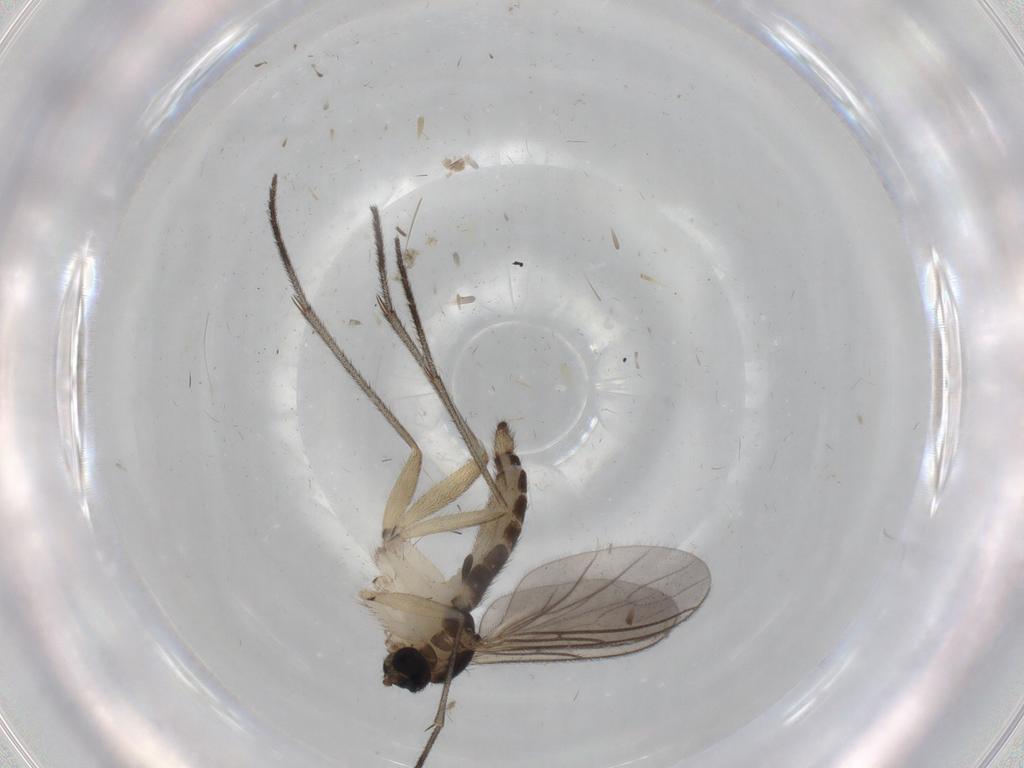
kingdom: Animalia
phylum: Arthropoda
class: Insecta
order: Diptera
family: Sciaridae
